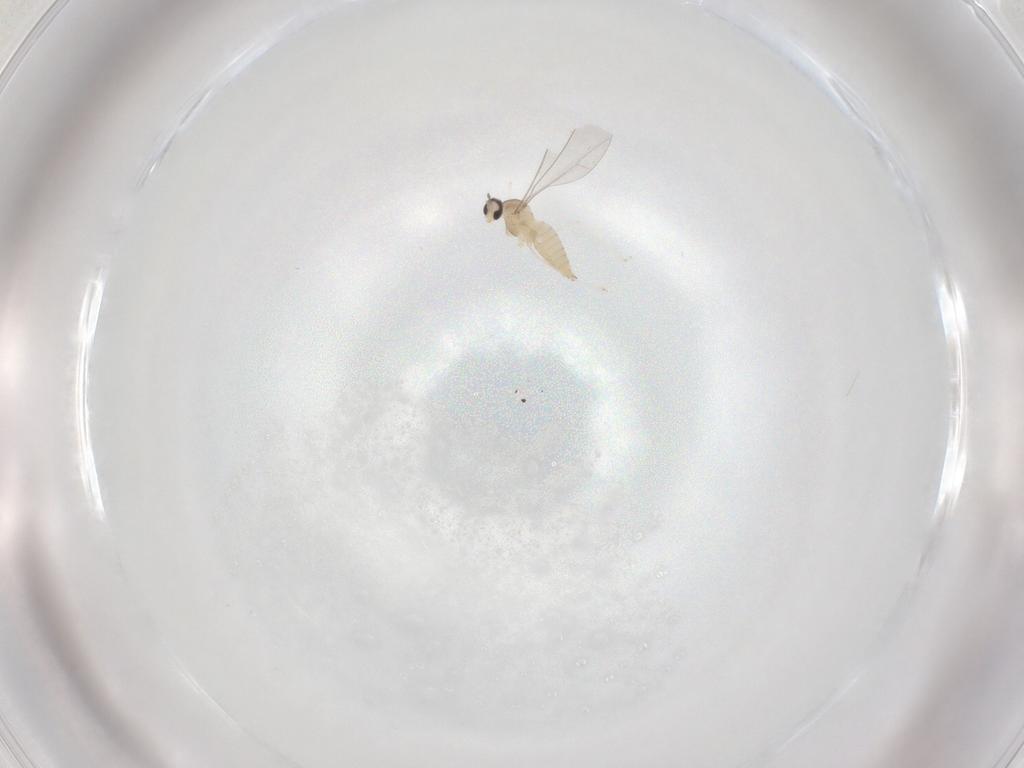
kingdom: Animalia
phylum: Arthropoda
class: Insecta
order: Diptera
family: Cecidomyiidae
